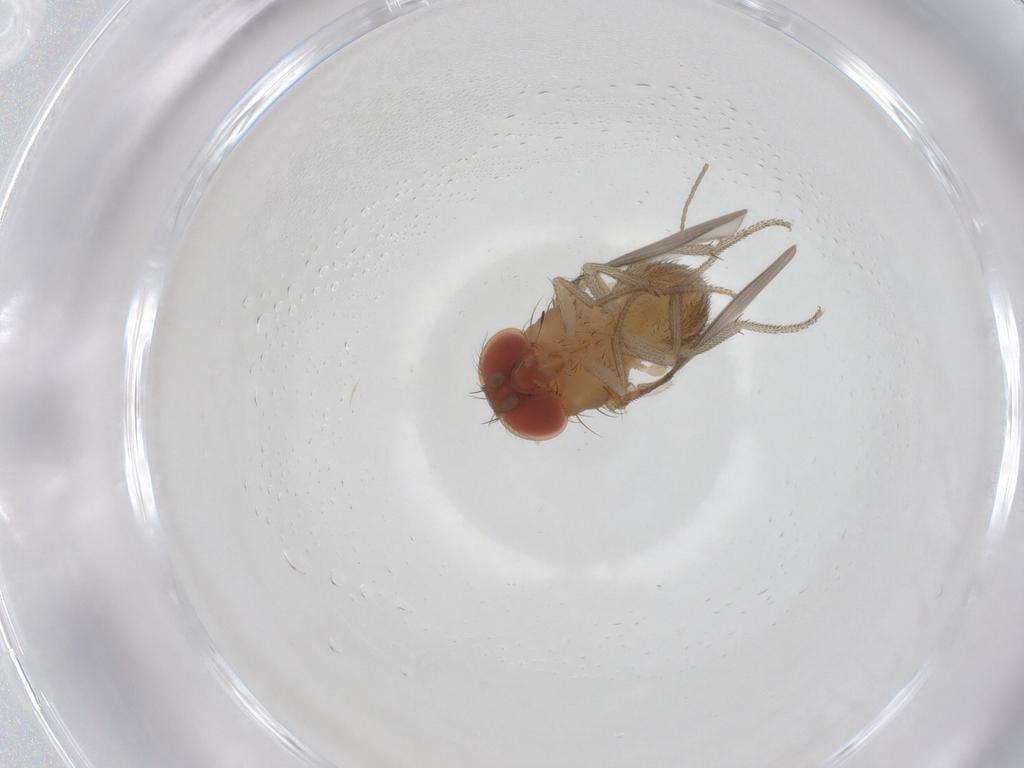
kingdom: Animalia
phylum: Arthropoda
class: Insecta
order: Diptera
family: Drosophilidae
